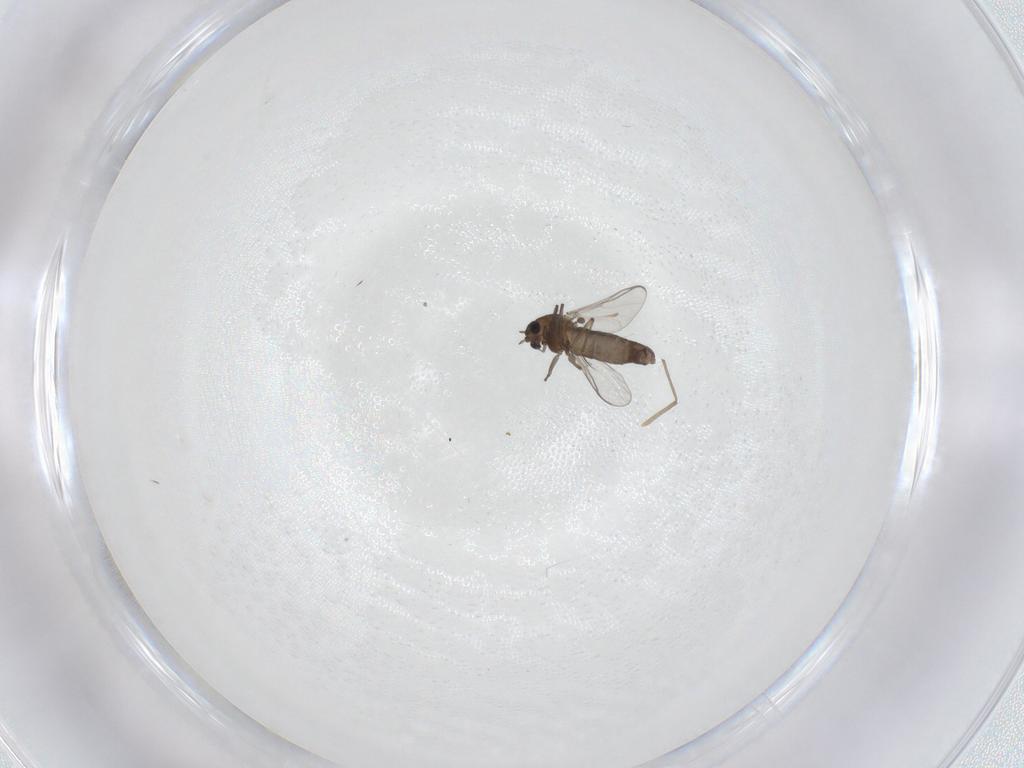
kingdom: Animalia
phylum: Arthropoda
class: Insecta
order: Diptera
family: Chironomidae
